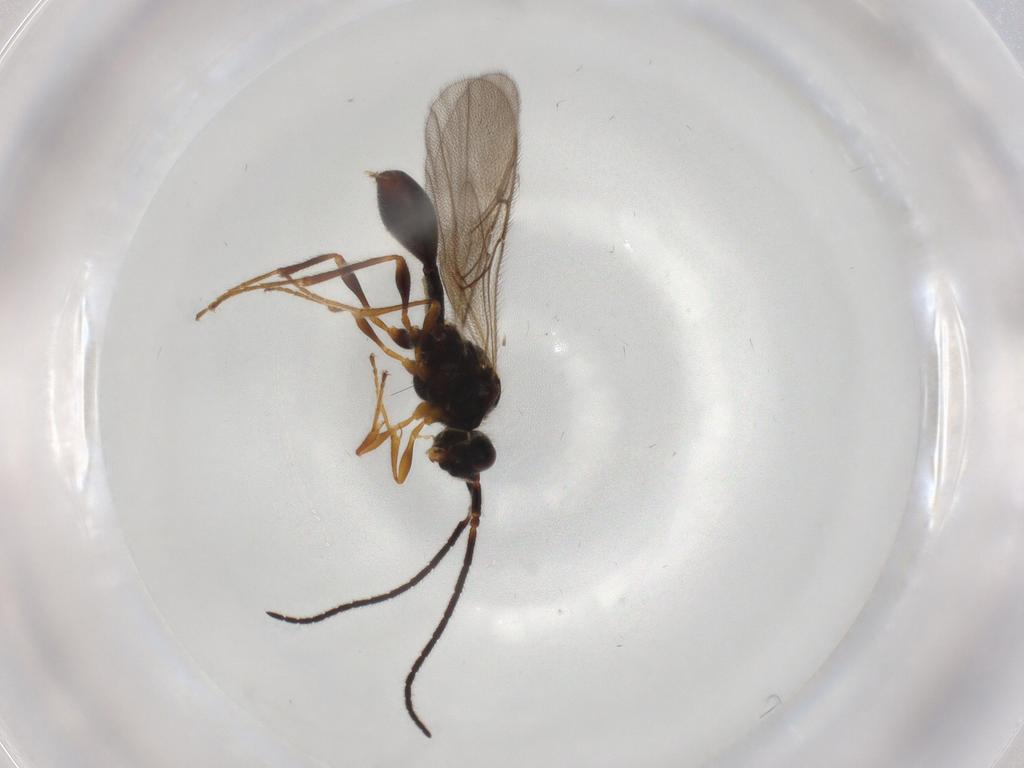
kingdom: Animalia
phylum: Arthropoda
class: Insecta
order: Hymenoptera
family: Diapriidae
